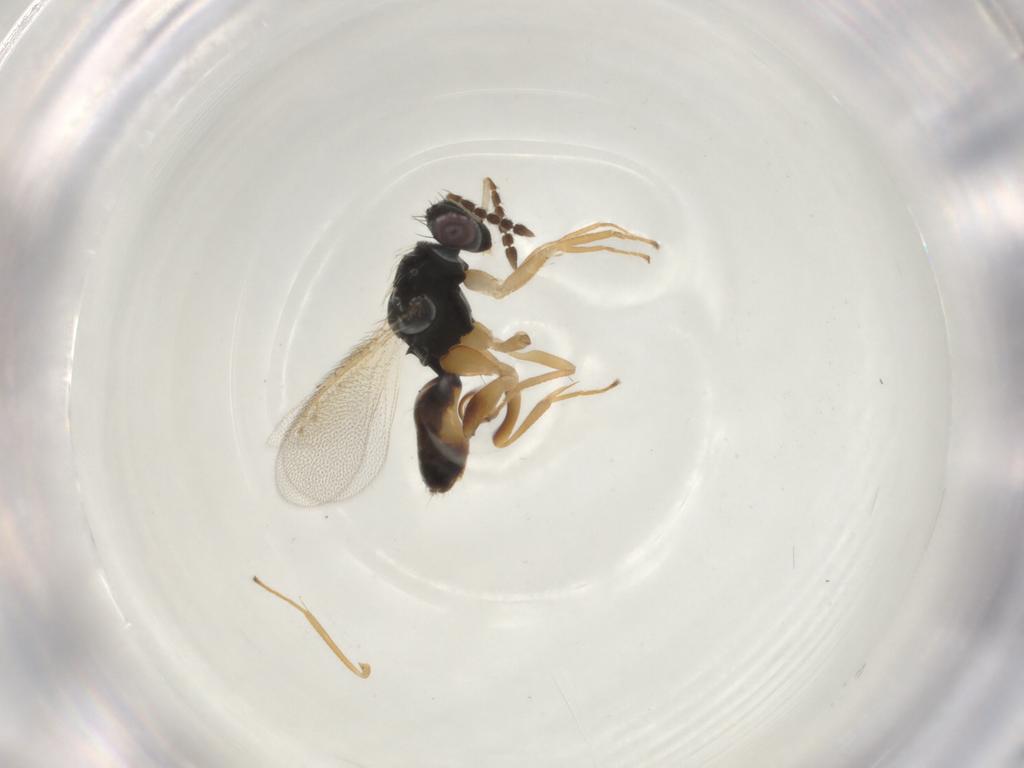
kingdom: Animalia
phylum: Arthropoda
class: Insecta
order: Hymenoptera
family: Eulophidae
